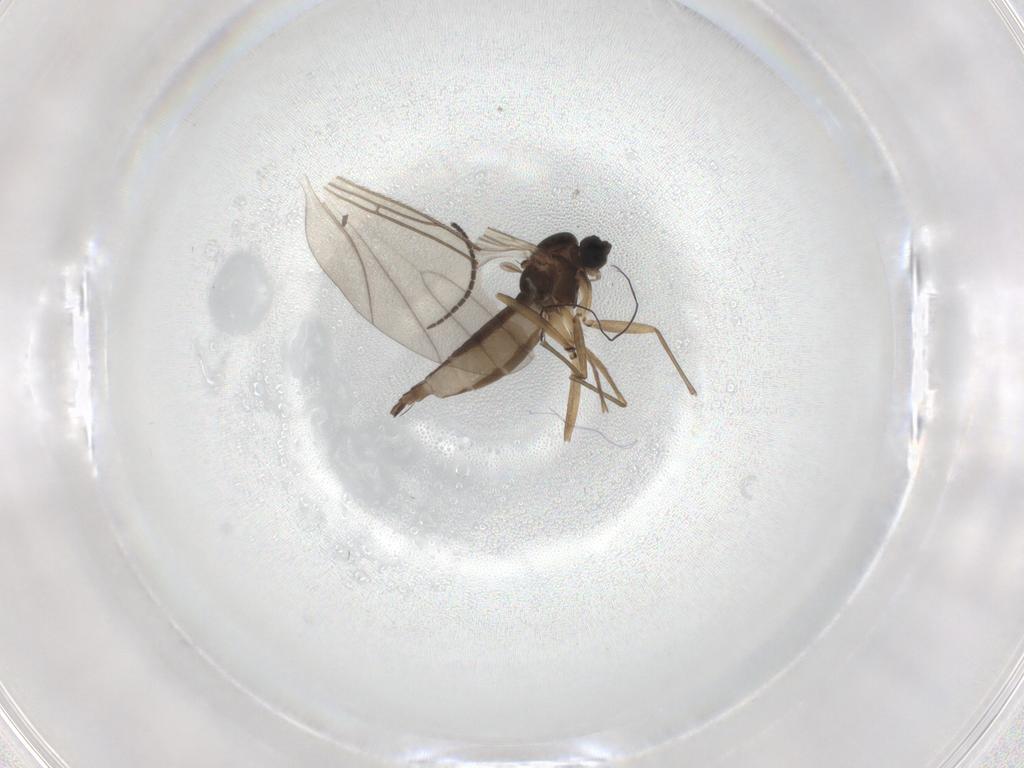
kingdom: Animalia
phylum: Arthropoda
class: Insecta
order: Diptera
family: Sciaridae
